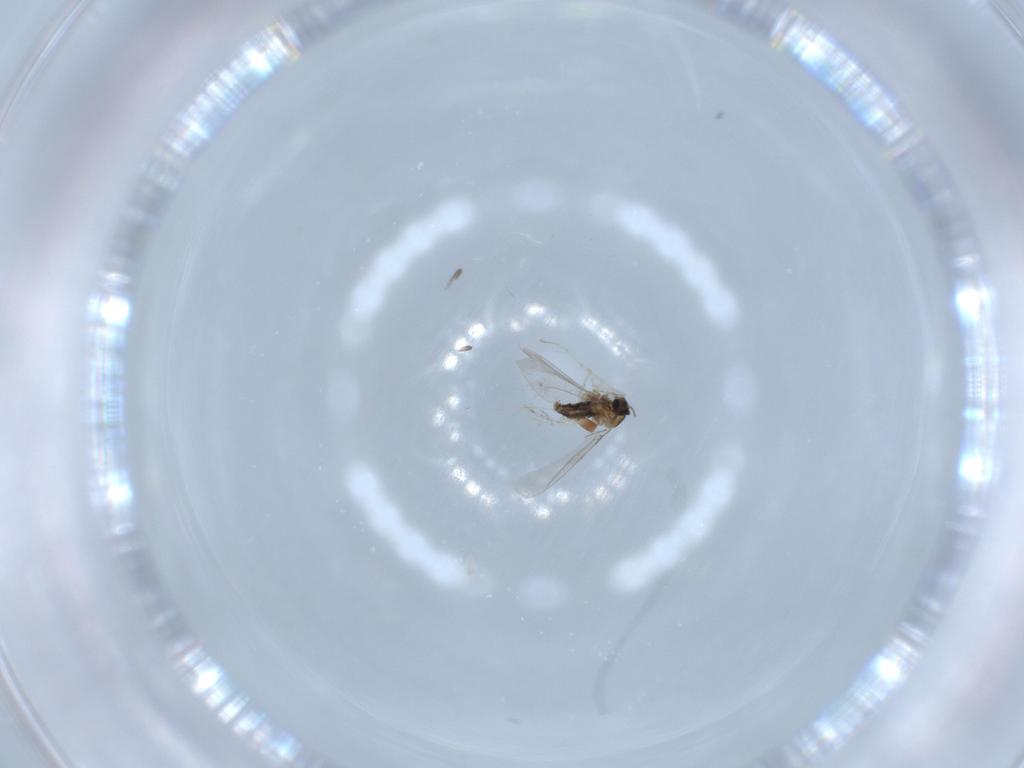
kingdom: Animalia
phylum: Arthropoda
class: Insecta
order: Diptera
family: Cecidomyiidae
